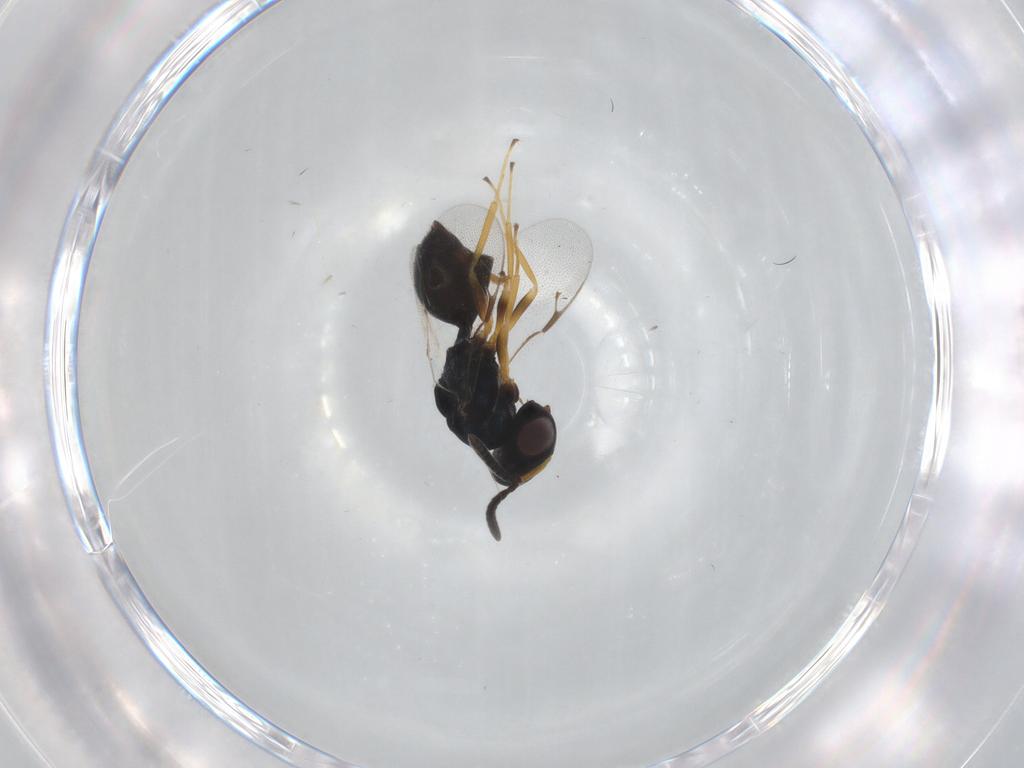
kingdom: Animalia
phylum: Arthropoda
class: Insecta
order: Hymenoptera
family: Pteromalidae
